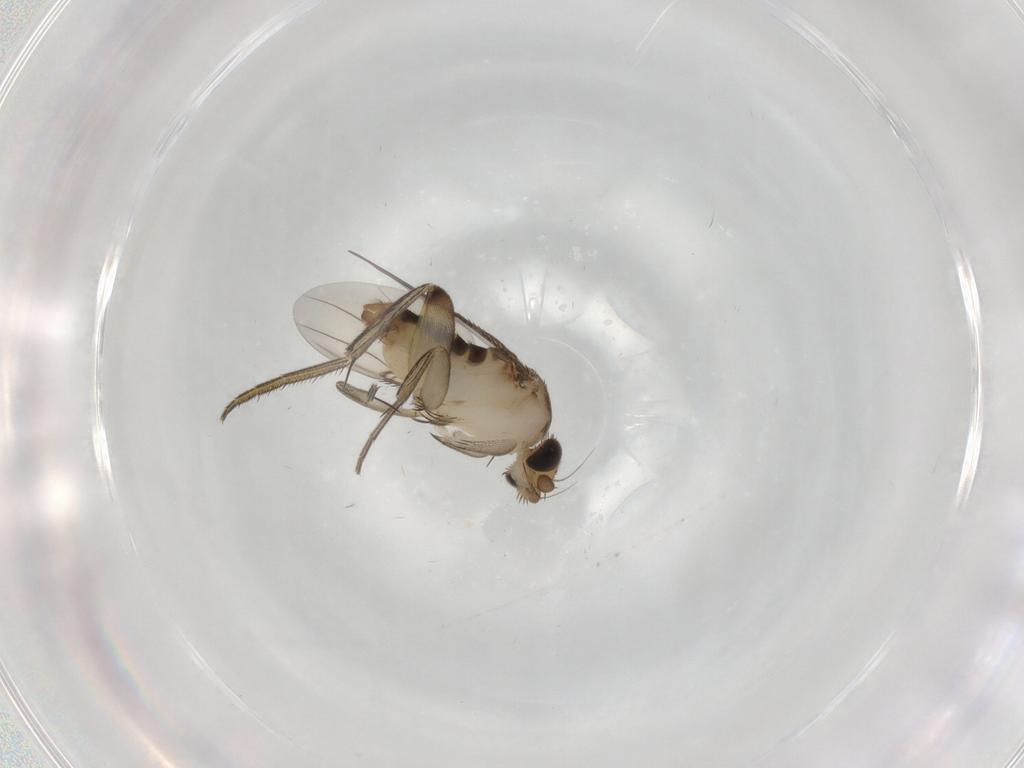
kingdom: Animalia
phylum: Arthropoda
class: Insecta
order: Diptera
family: Phoridae
